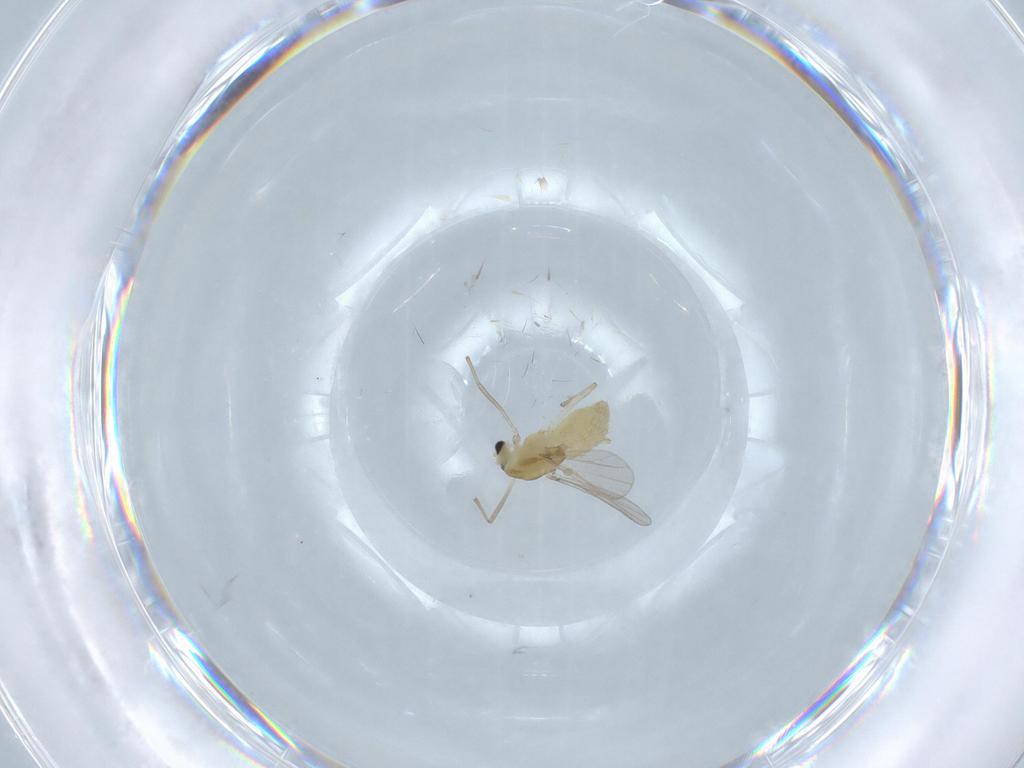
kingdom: Animalia
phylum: Arthropoda
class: Insecta
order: Diptera
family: Chironomidae
